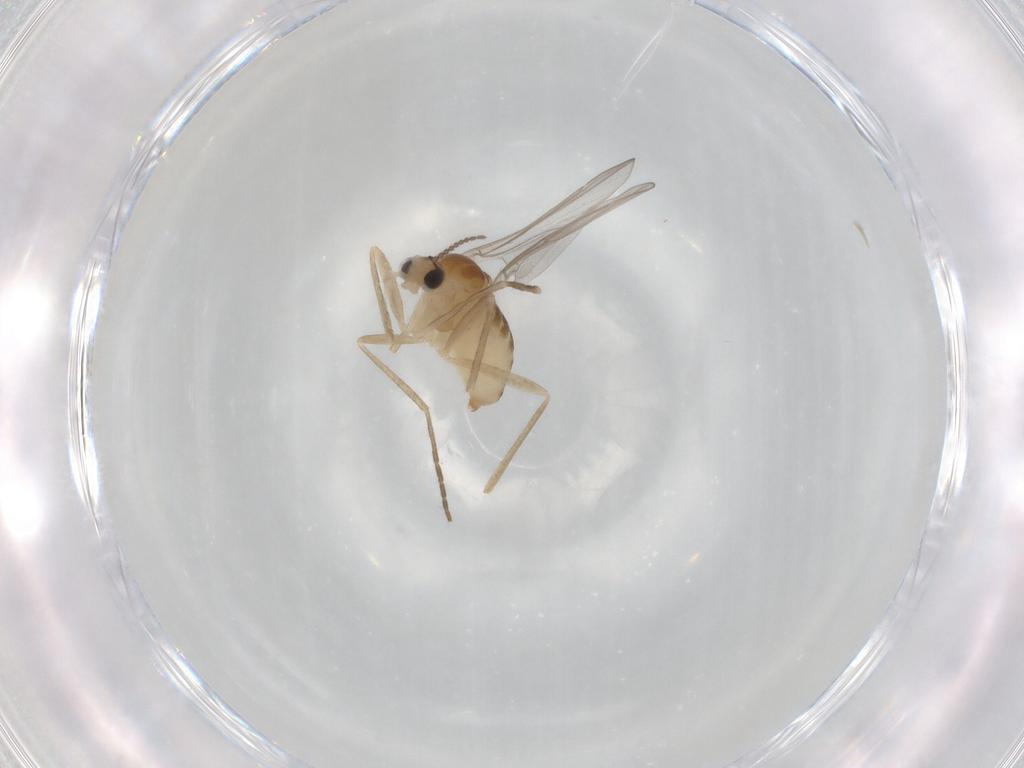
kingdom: Animalia
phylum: Arthropoda
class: Insecta
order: Diptera
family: Cecidomyiidae
